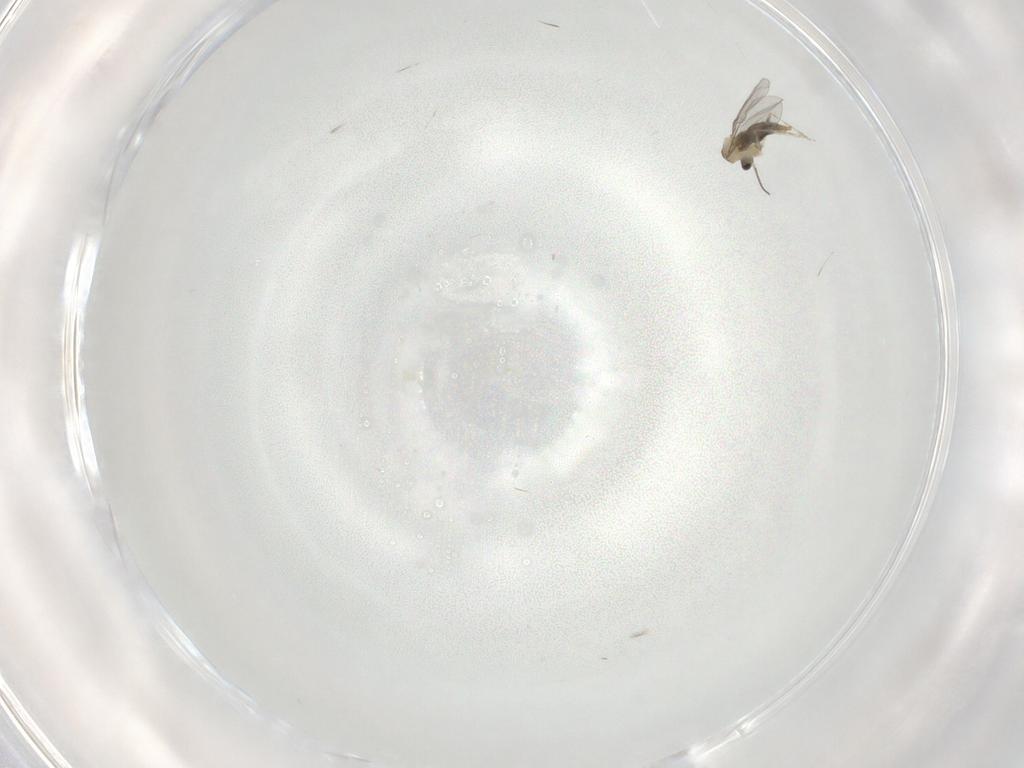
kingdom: Animalia
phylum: Arthropoda
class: Insecta
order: Diptera
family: Cecidomyiidae
